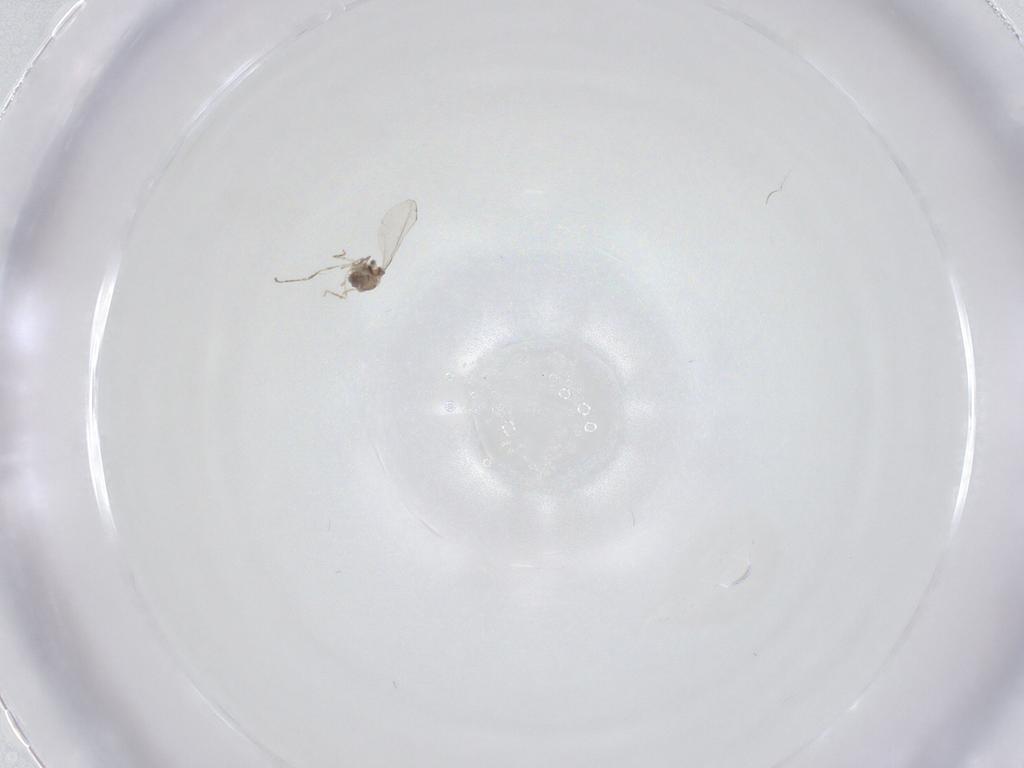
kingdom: Animalia
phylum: Arthropoda
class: Insecta
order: Diptera
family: Cecidomyiidae
